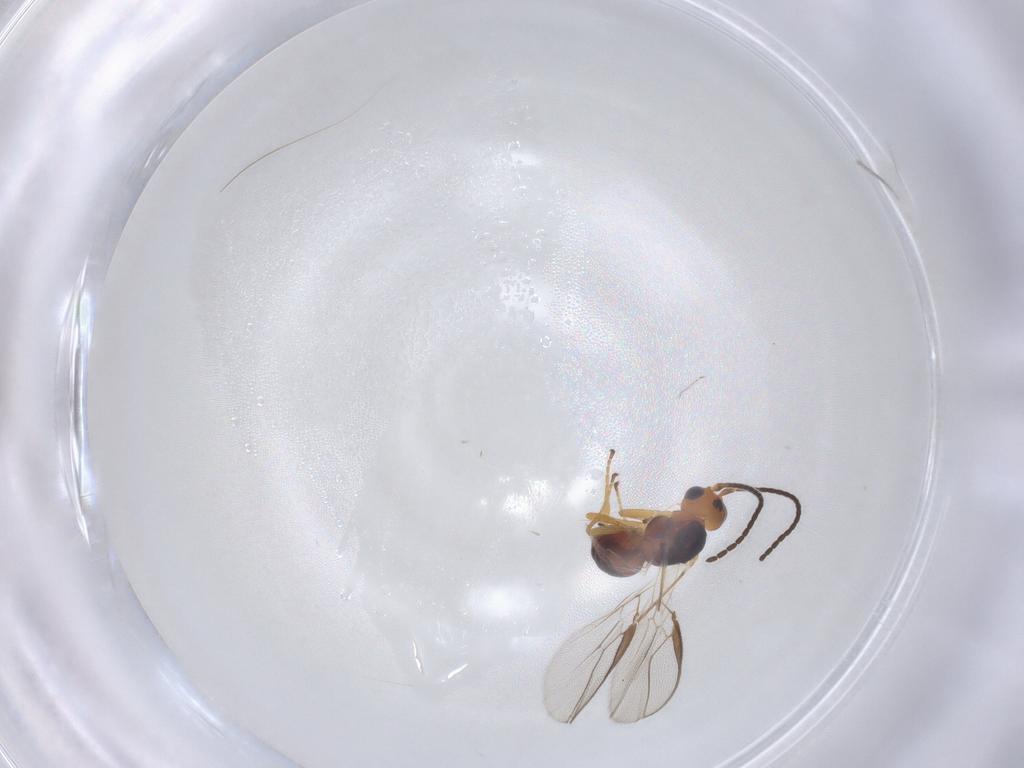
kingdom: Animalia
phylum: Arthropoda
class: Insecta
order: Hymenoptera
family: Braconidae
